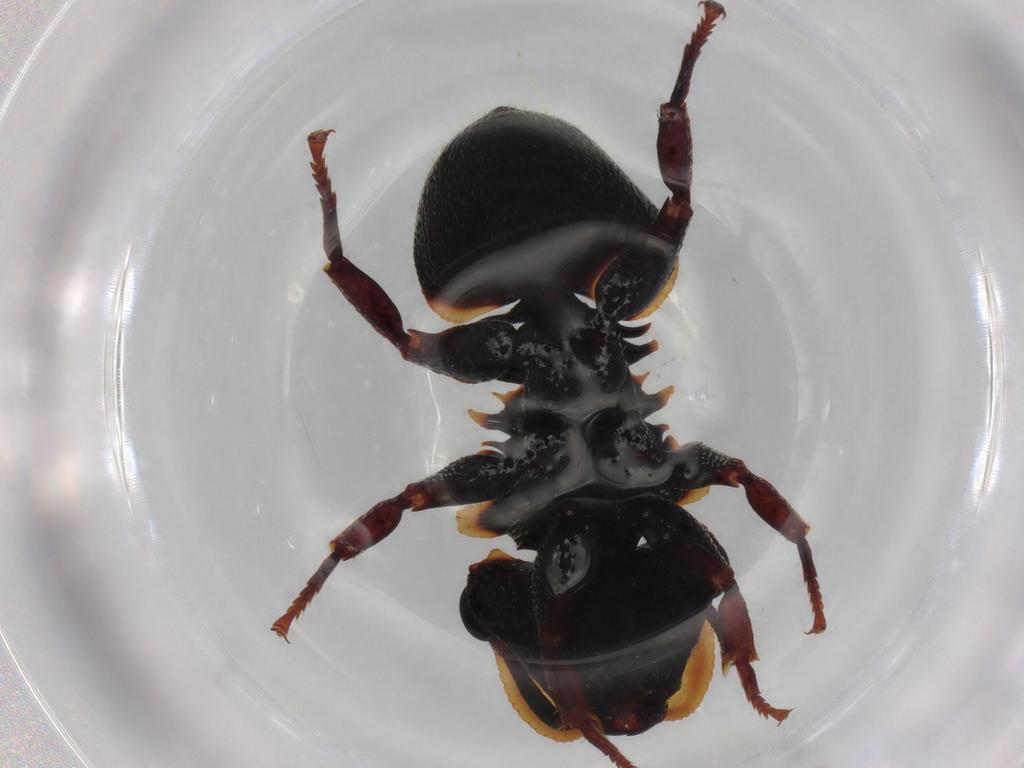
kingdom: Animalia
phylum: Arthropoda
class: Insecta
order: Hymenoptera
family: Formicidae
